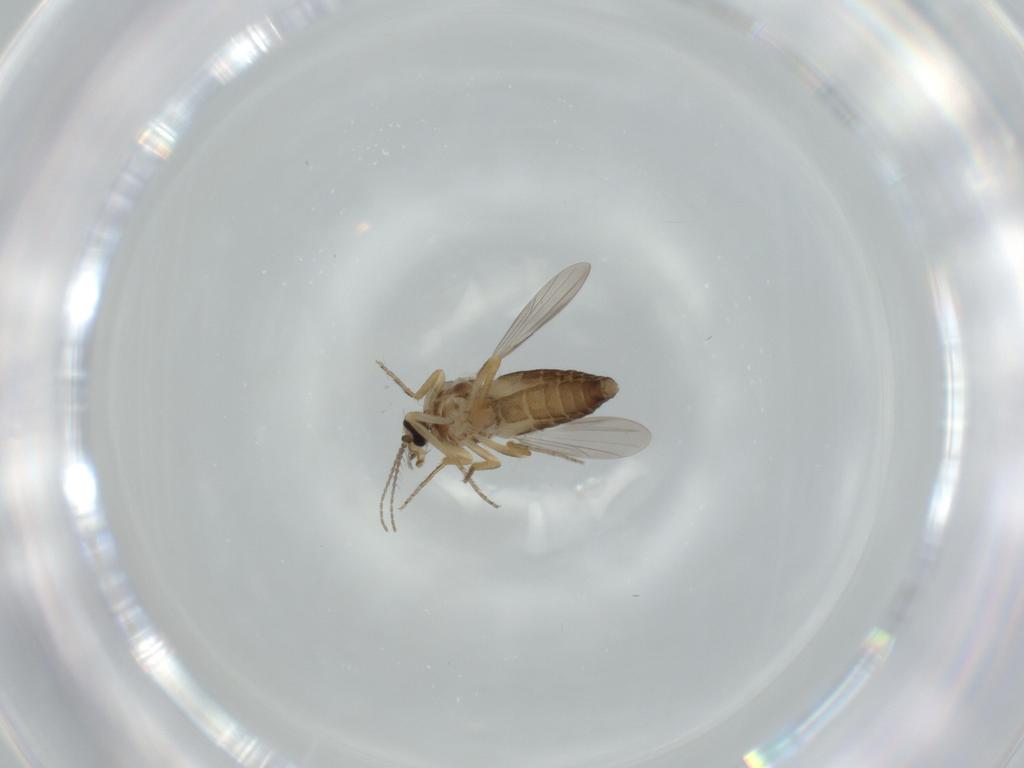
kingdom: Animalia
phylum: Arthropoda
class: Insecta
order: Diptera
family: Ceratopogonidae
